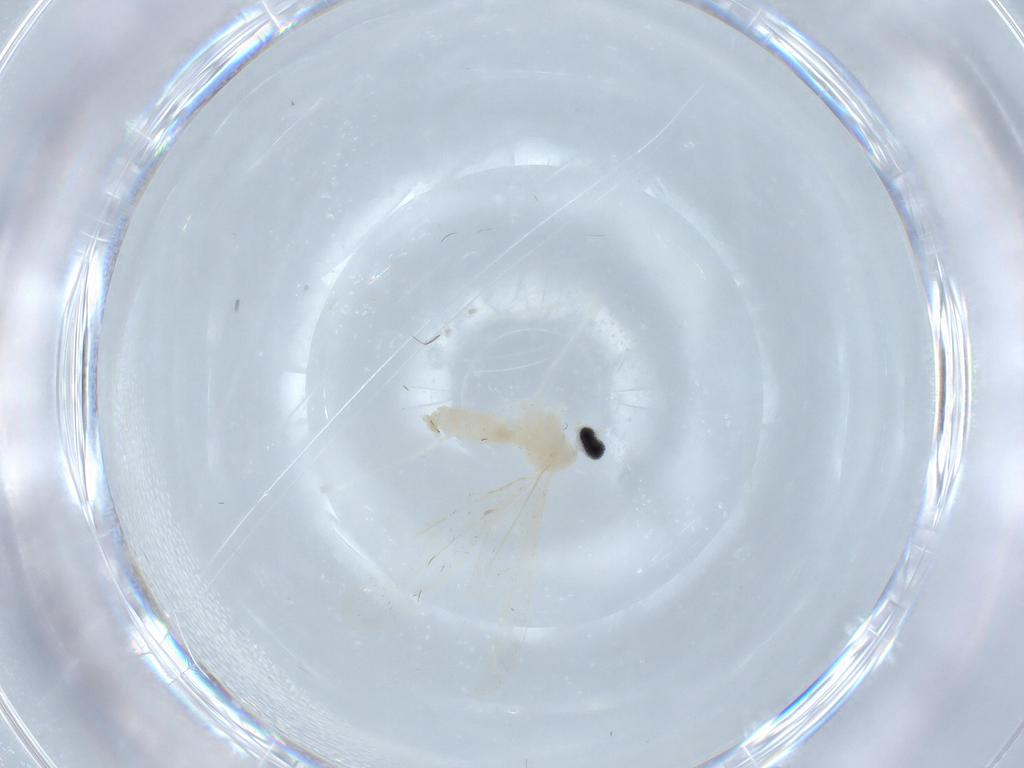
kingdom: Animalia
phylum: Arthropoda
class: Insecta
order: Diptera
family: Cecidomyiidae
